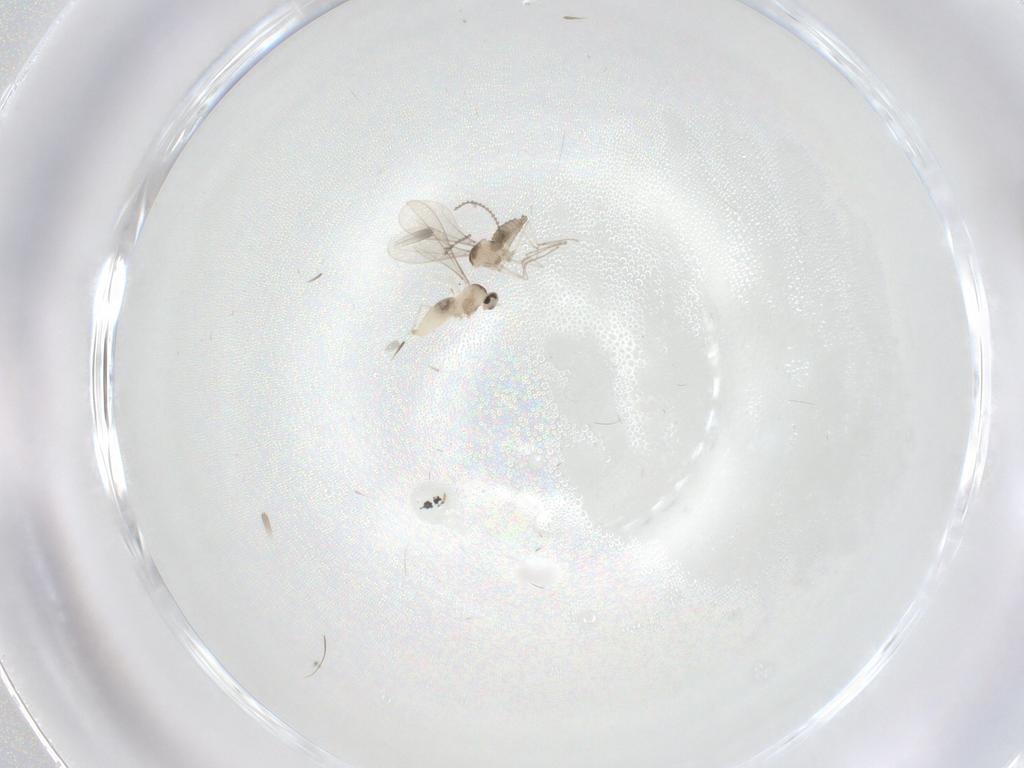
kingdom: Animalia
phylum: Arthropoda
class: Insecta
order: Diptera
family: Cecidomyiidae
